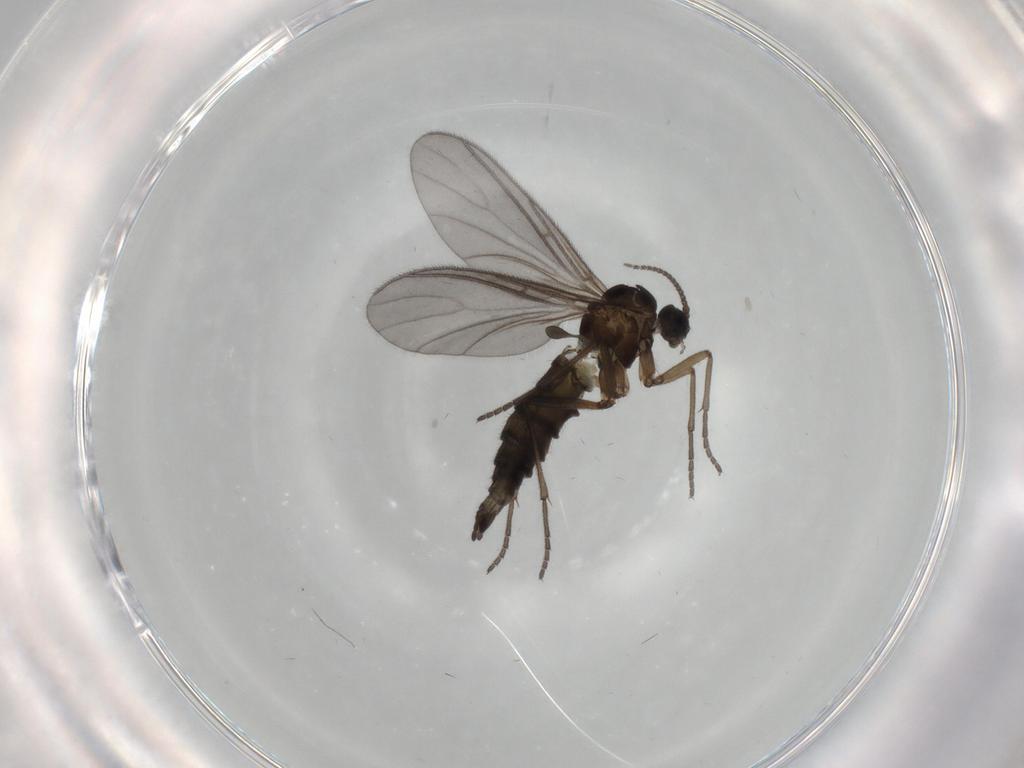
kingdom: Animalia
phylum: Arthropoda
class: Insecta
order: Diptera
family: Sciaridae
